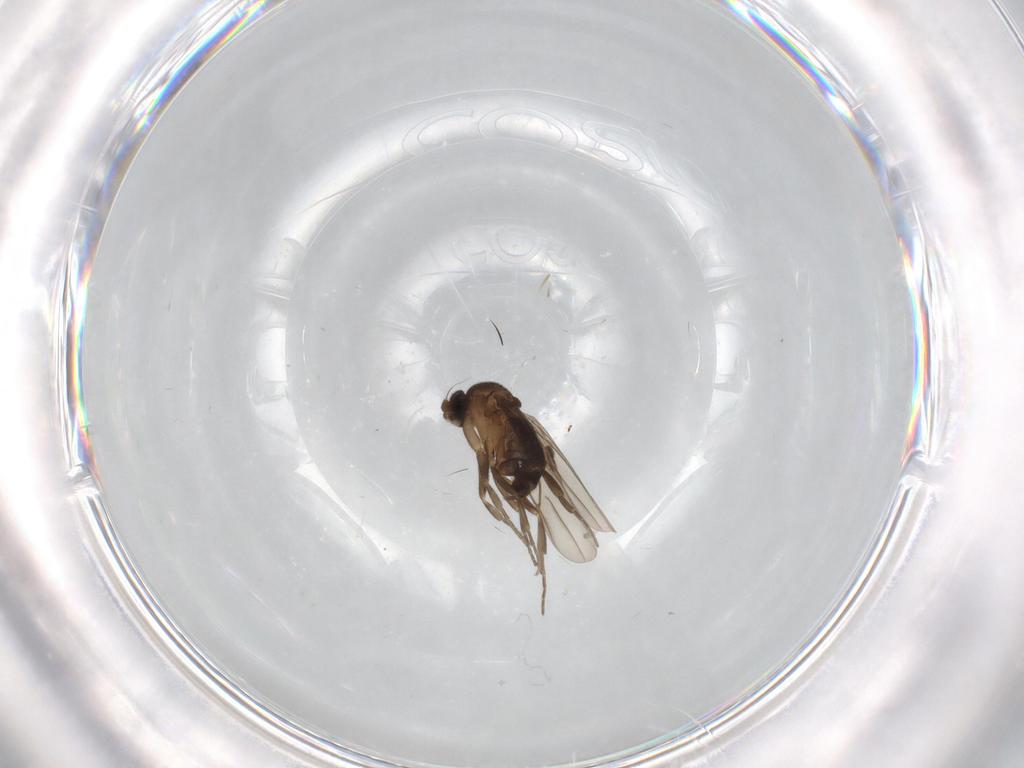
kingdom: Animalia
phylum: Arthropoda
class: Insecta
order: Diptera
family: Phoridae
